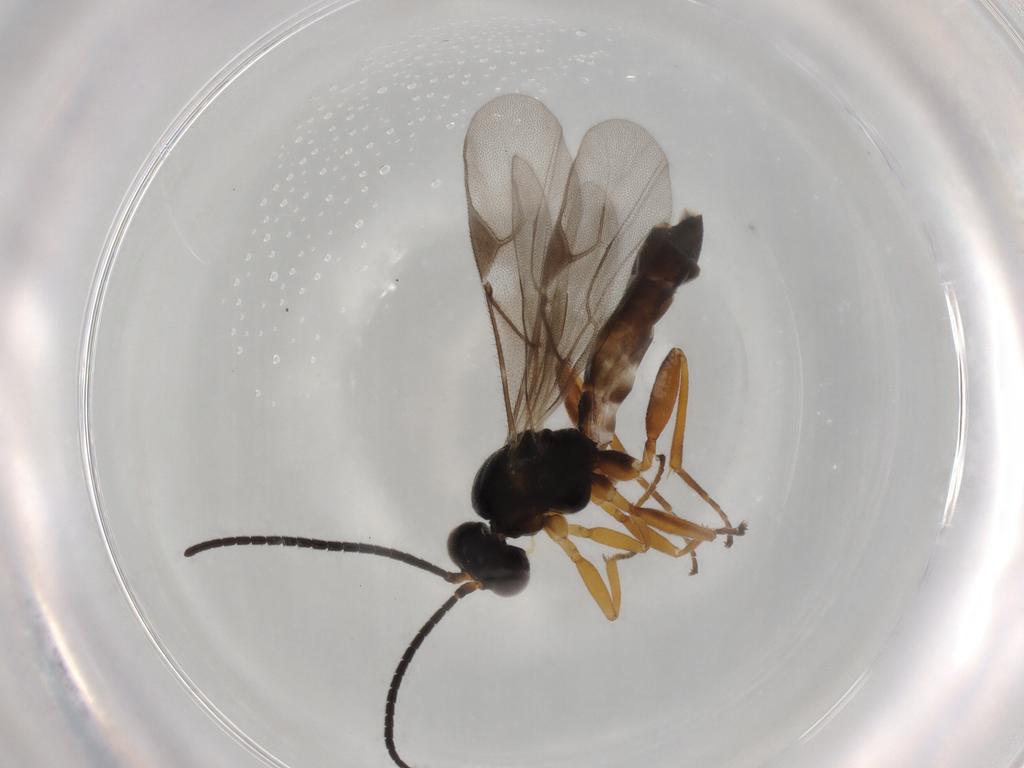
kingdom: Animalia
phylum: Arthropoda
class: Insecta
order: Hymenoptera
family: Braconidae
